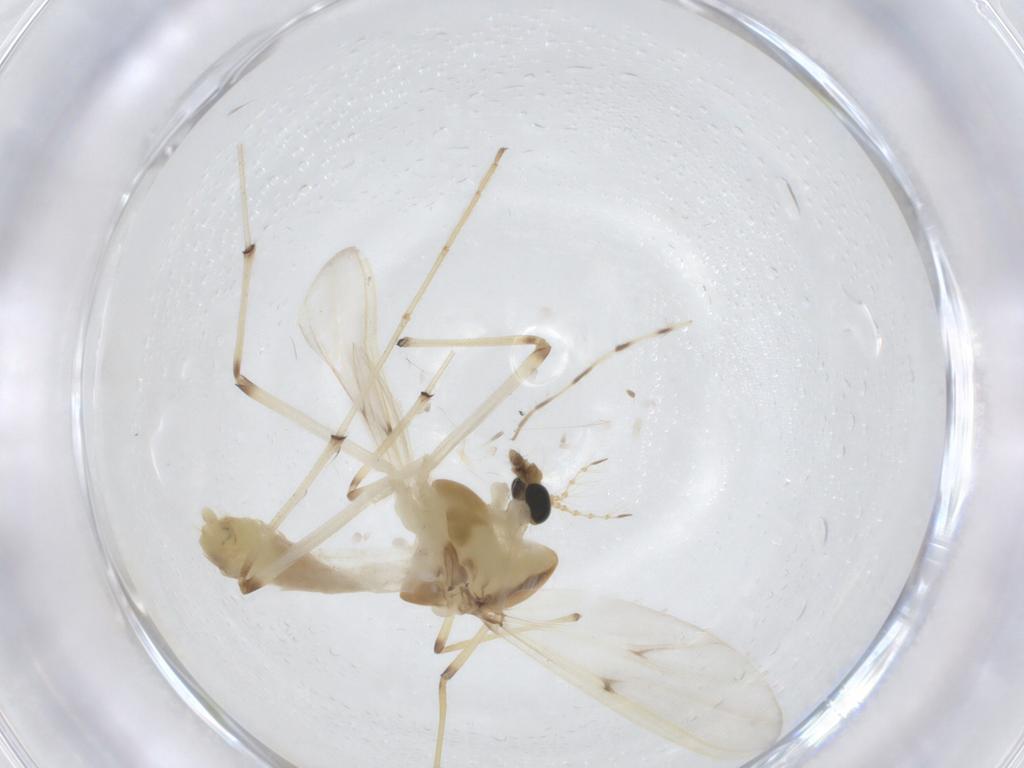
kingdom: Animalia
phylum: Arthropoda
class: Insecta
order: Diptera
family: Chironomidae
